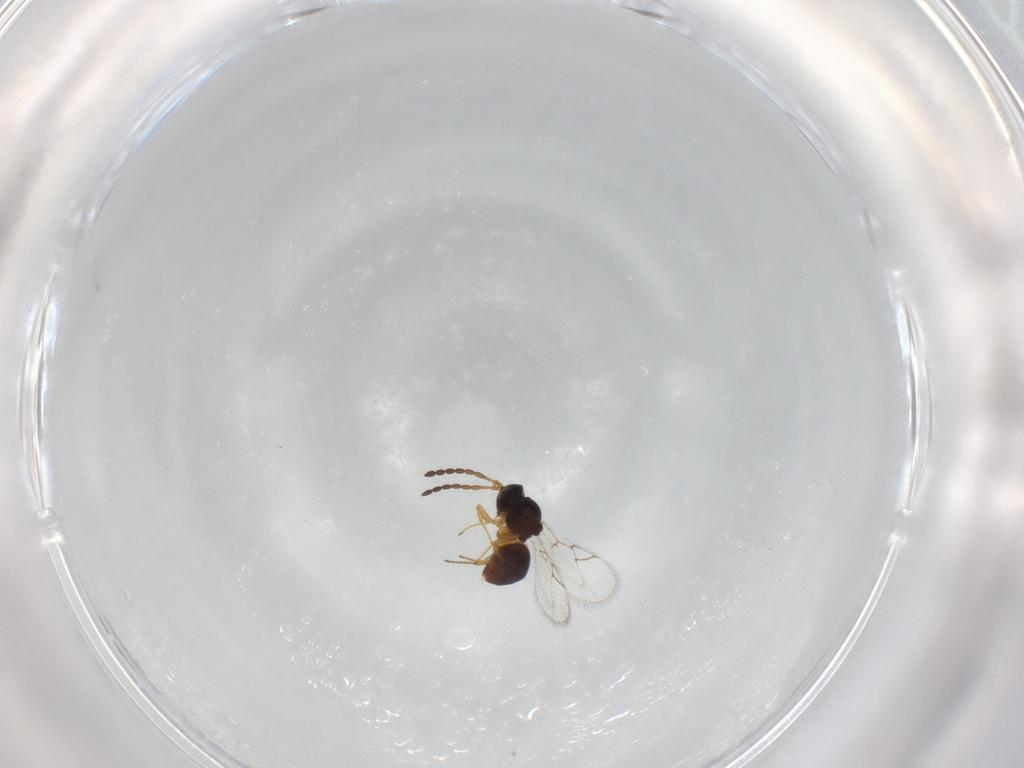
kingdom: Animalia
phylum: Arthropoda
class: Insecta
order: Hymenoptera
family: Figitidae
